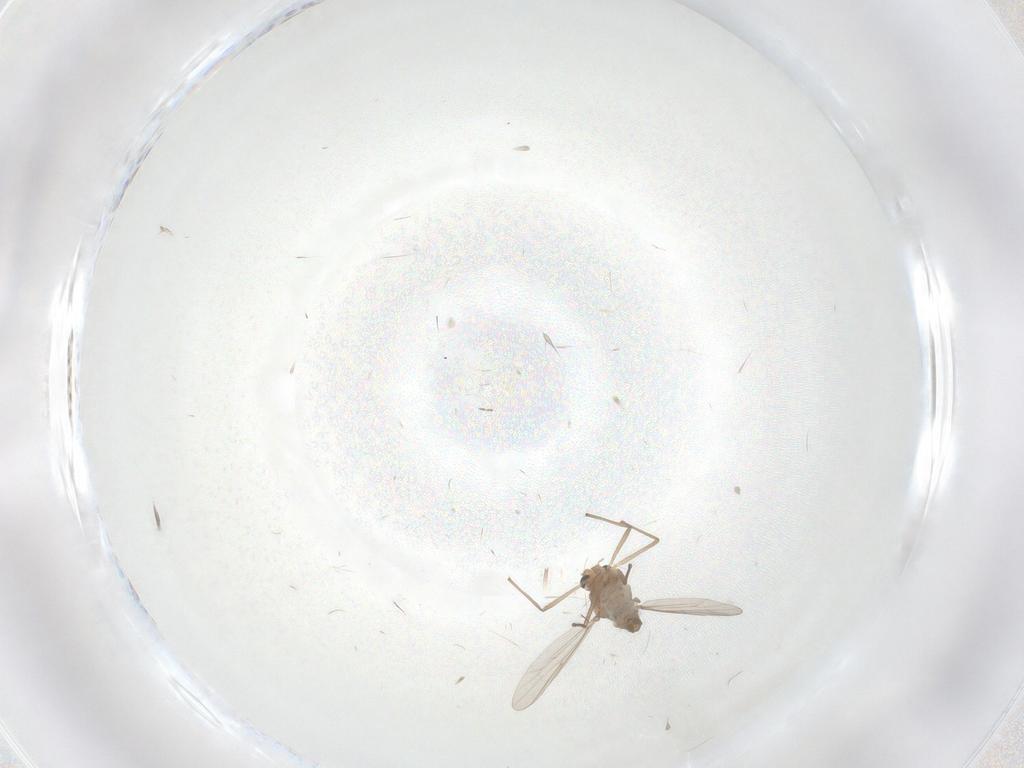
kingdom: Animalia
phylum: Arthropoda
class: Insecta
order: Diptera
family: Chironomidae
